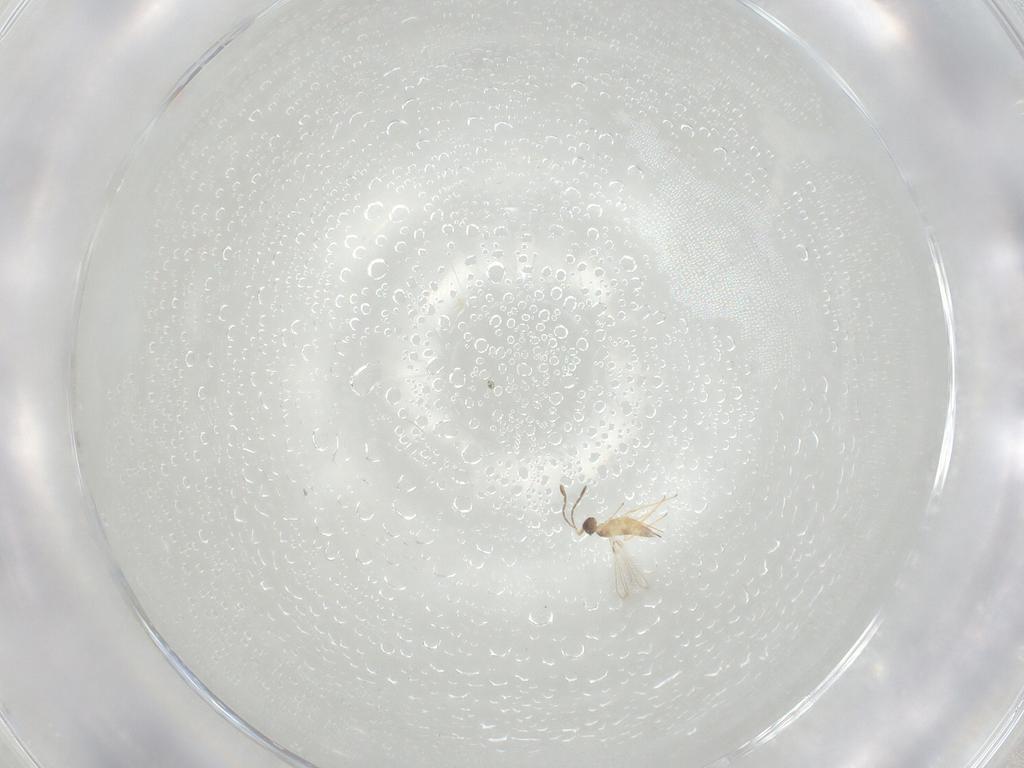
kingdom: Animalia
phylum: Arthropoda
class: Insecta
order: Hymenoptera
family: Mymaridae
